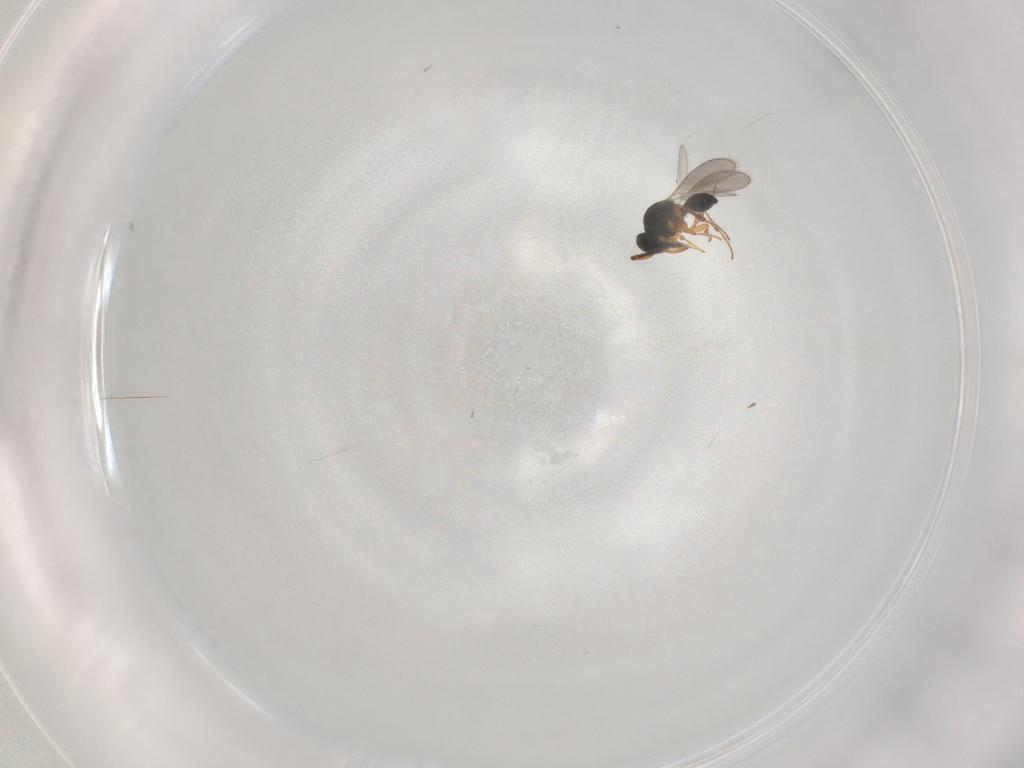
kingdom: Animalia
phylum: Arthropoda
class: Insecta
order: Hymenoptera
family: Platygastridae
